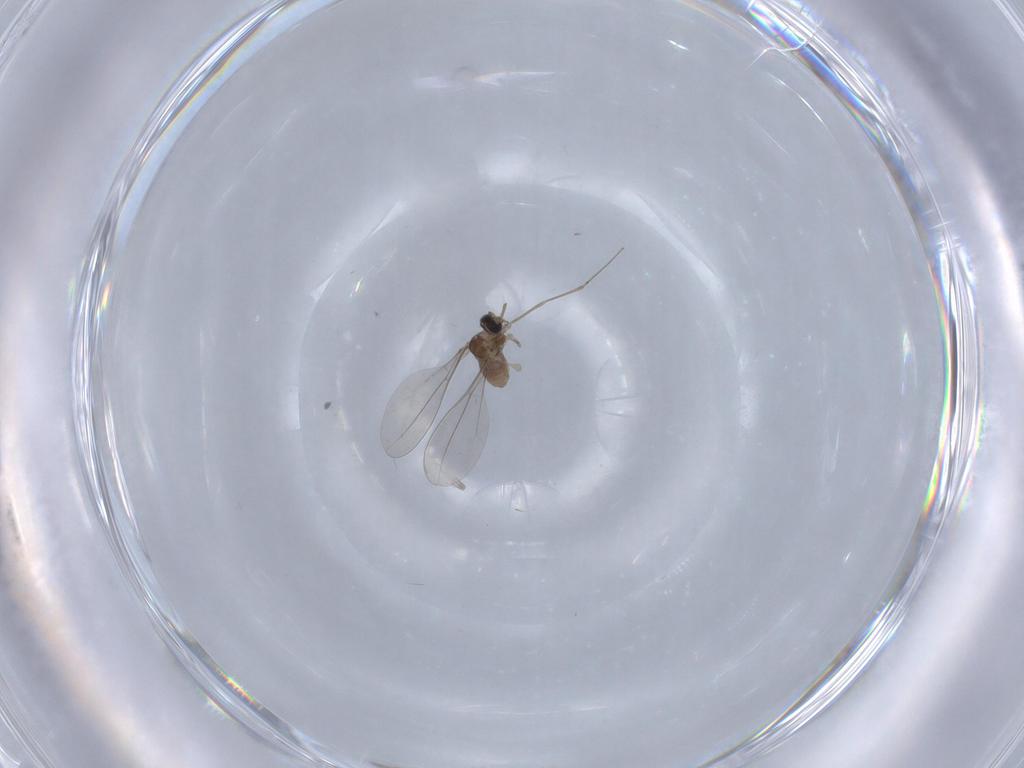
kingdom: Animalia
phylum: Arthropoda
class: Insecta
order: Diptera
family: Cecidomyiidae
